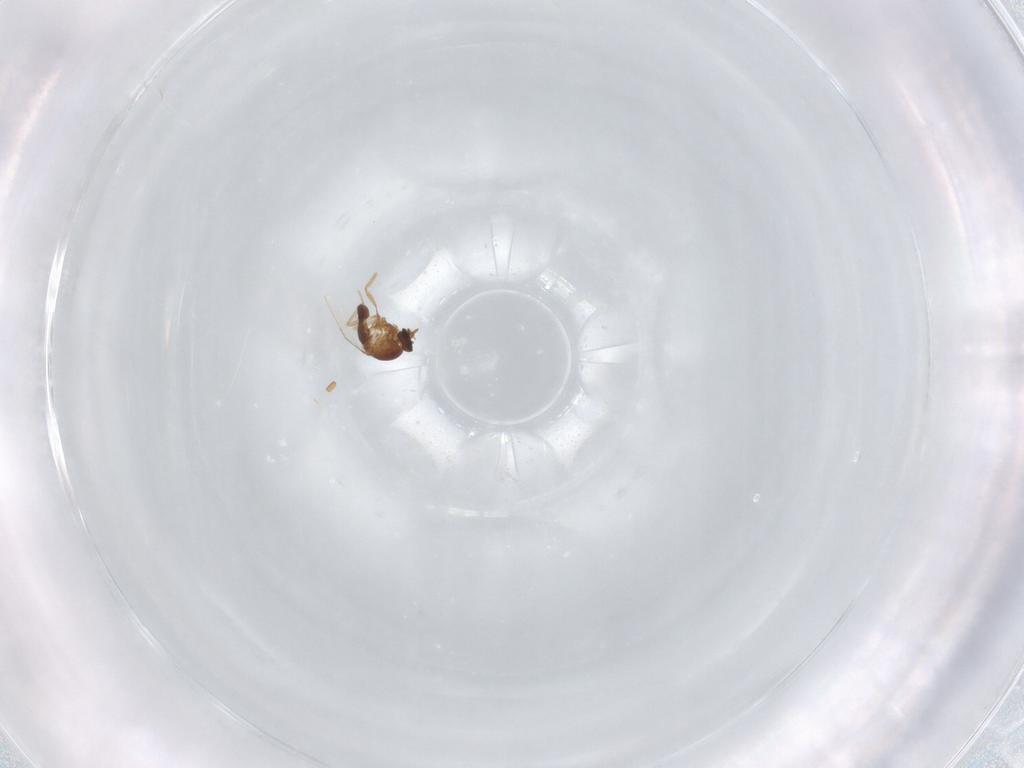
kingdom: Animalia
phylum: Arthropoda
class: Insecta
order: Diptera
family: Ceratopogonidae
